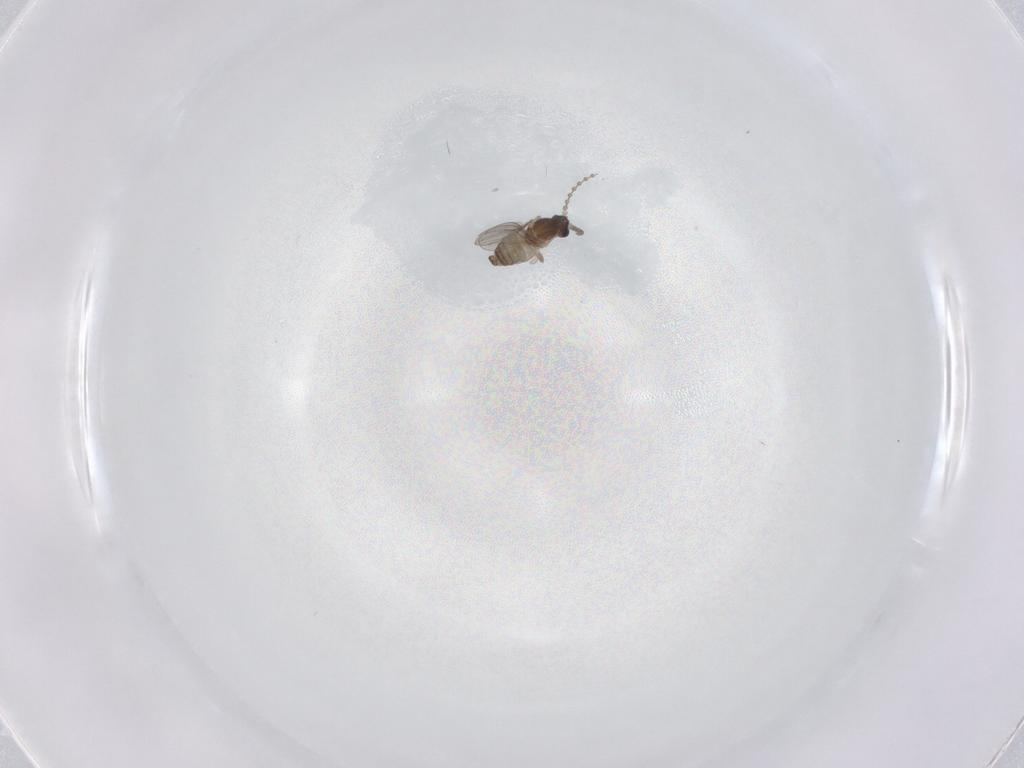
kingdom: Animalia
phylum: Arthropoda
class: Insecta
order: Diptera
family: Cecidomyiidae
